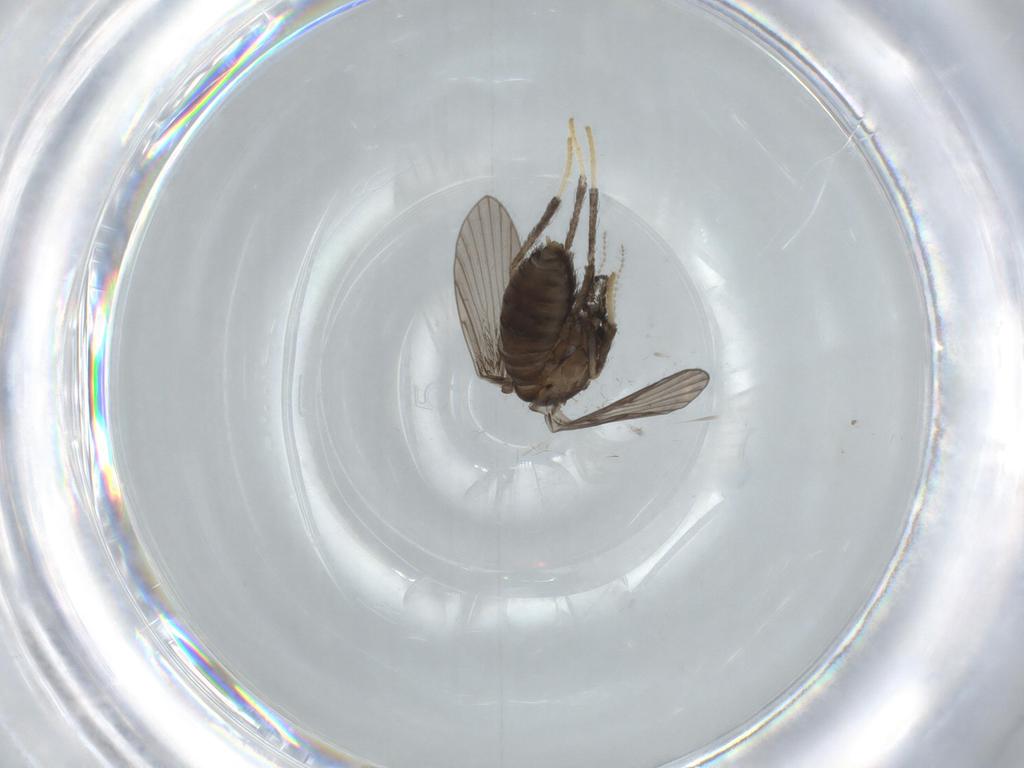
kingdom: Animalia
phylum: Arthropoda
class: Insecta
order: Diptera
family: Psychodidae
